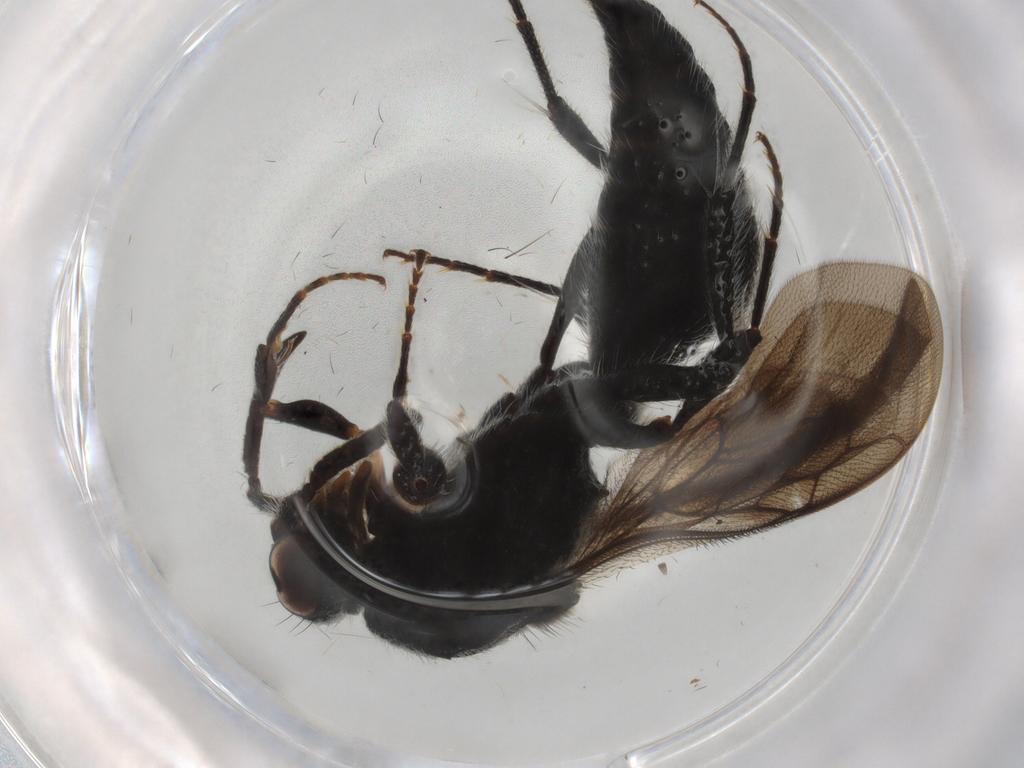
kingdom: Animalia
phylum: Arthropoda
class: Insecta
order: Hymenoptera
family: Mutillidae
